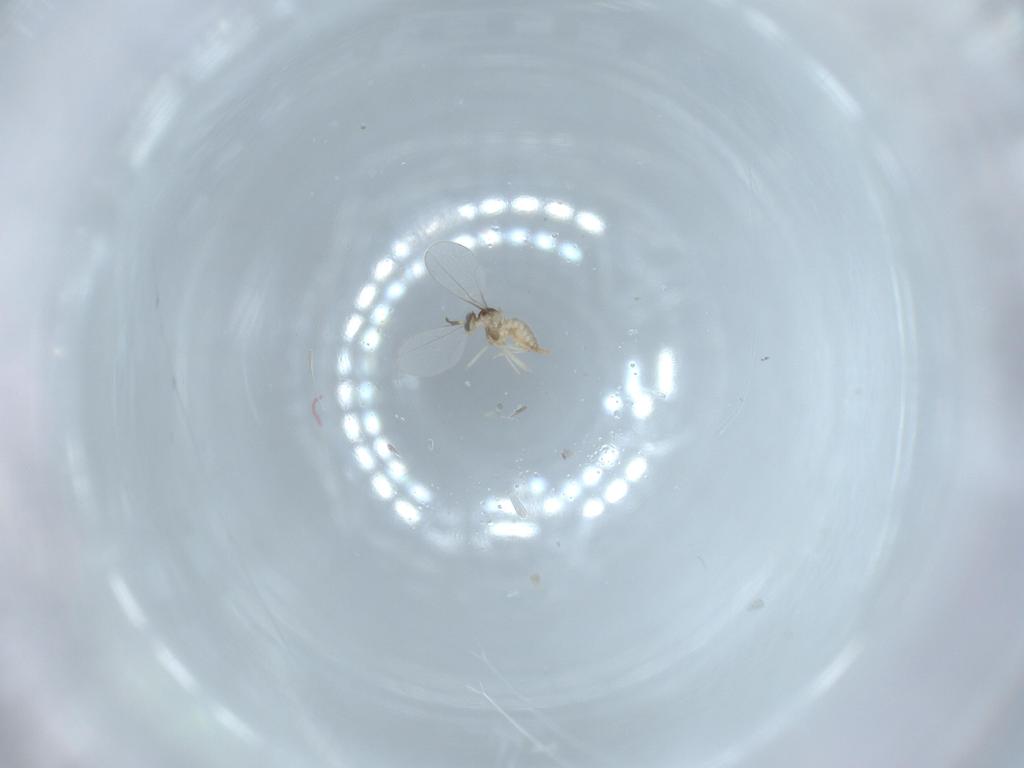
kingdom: Animalia
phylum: Arthropoda
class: Insecta
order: Diptera
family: Cecidomyiidae
